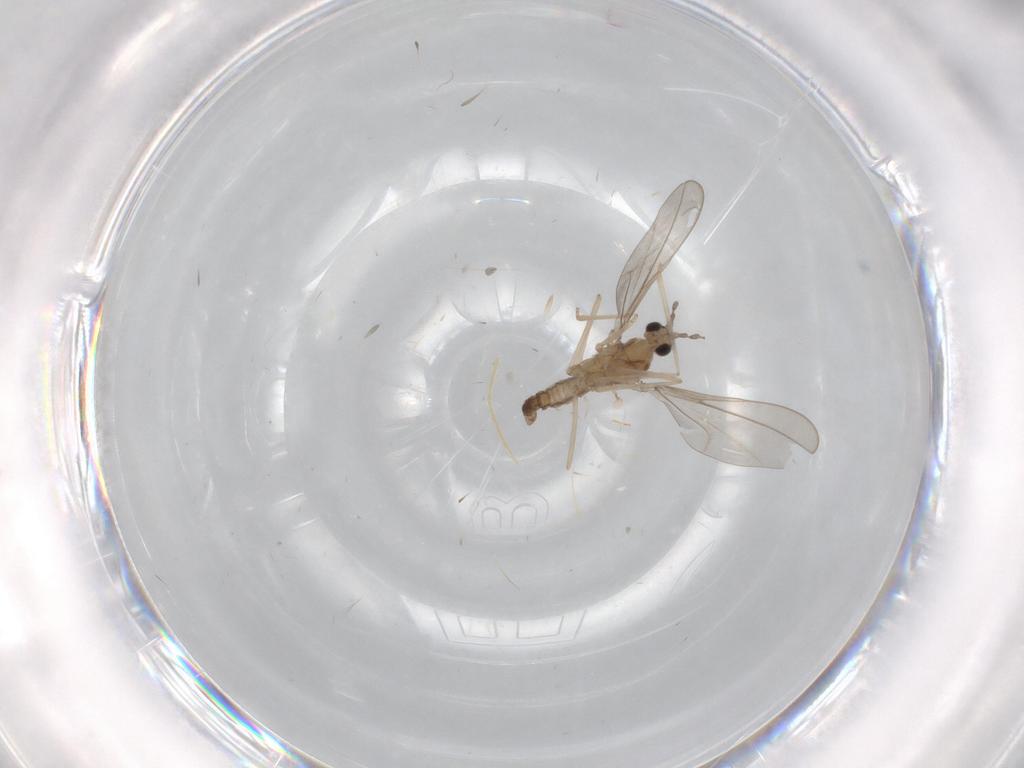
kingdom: Animalia
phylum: Arthropoda
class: Insecta
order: Diptera
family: Cecidomyiidae
